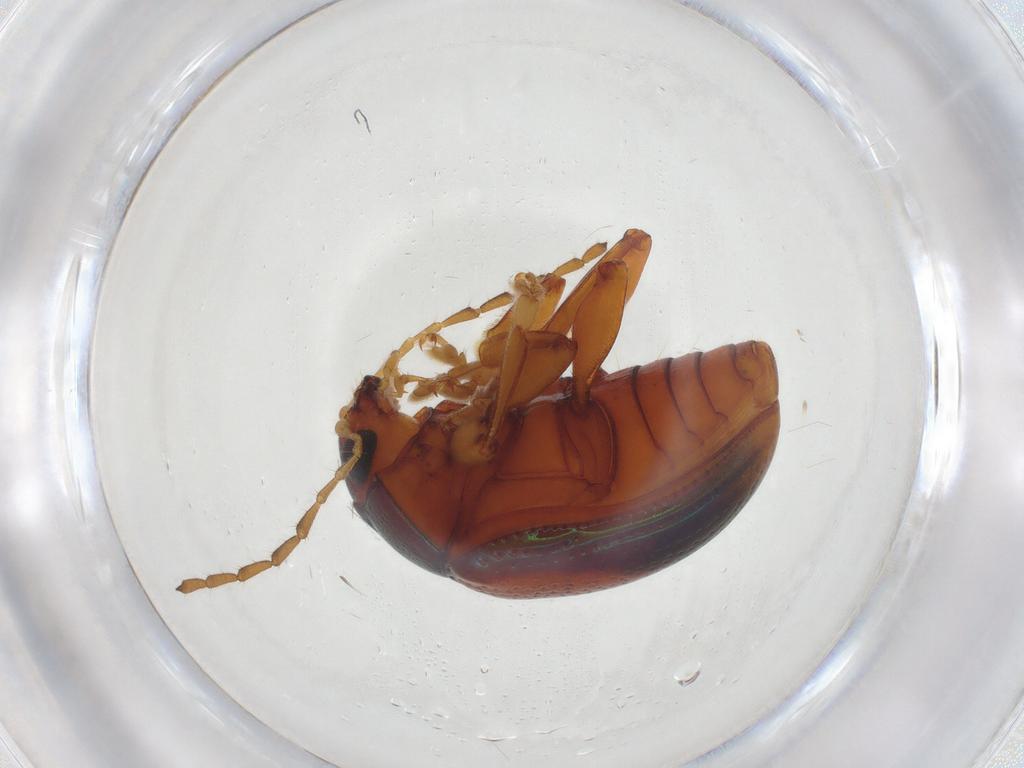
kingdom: Animalia
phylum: Arthropoda
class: Insecta
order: Coleoptera
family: Chrysomelidae
